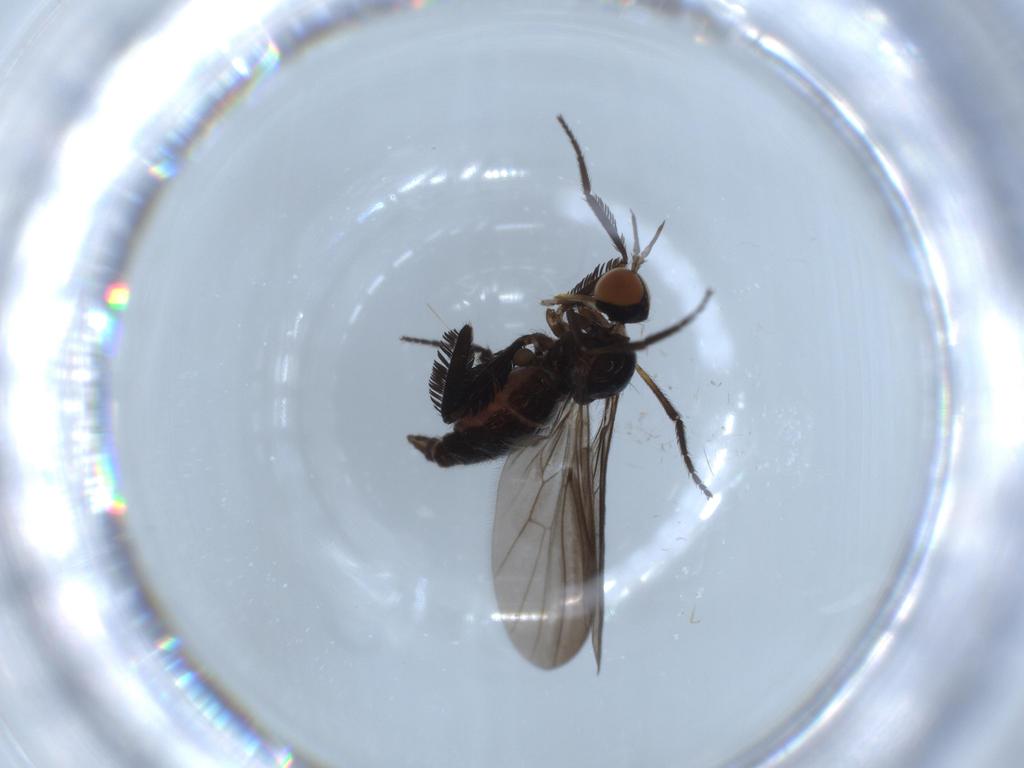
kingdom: Animalia
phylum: Arthropoda
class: Insecta
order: Diptera
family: Empididae
